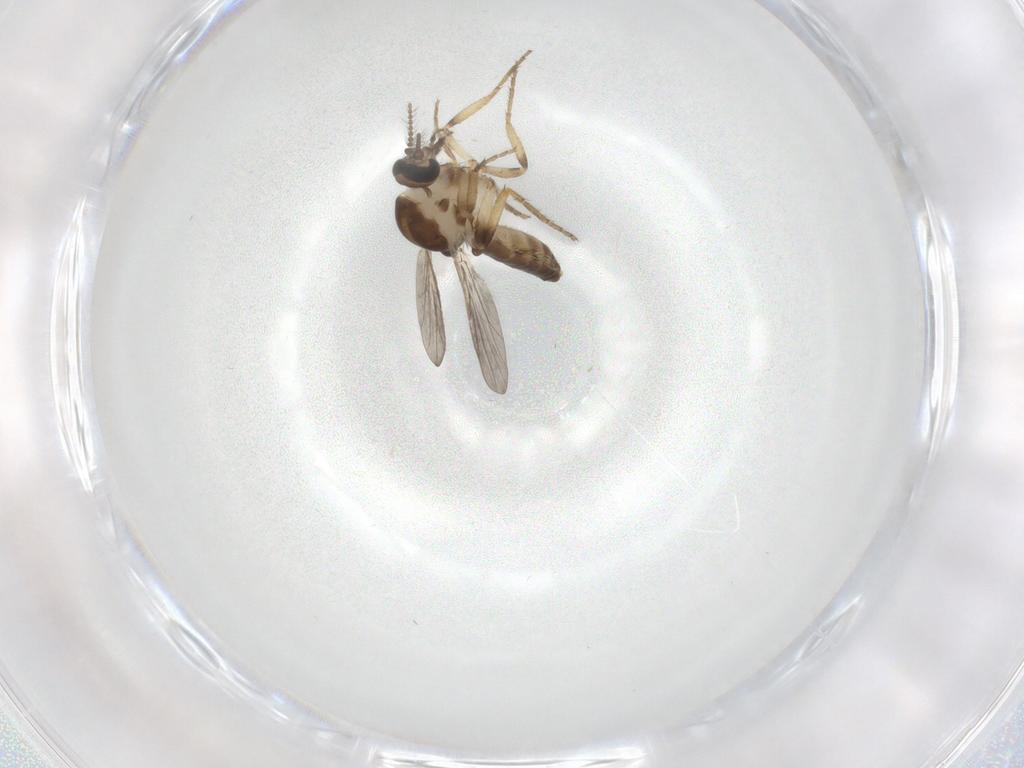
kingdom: Animalia
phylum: Arthropoda
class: Insecta
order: Diptera
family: Ceratopogonidae
